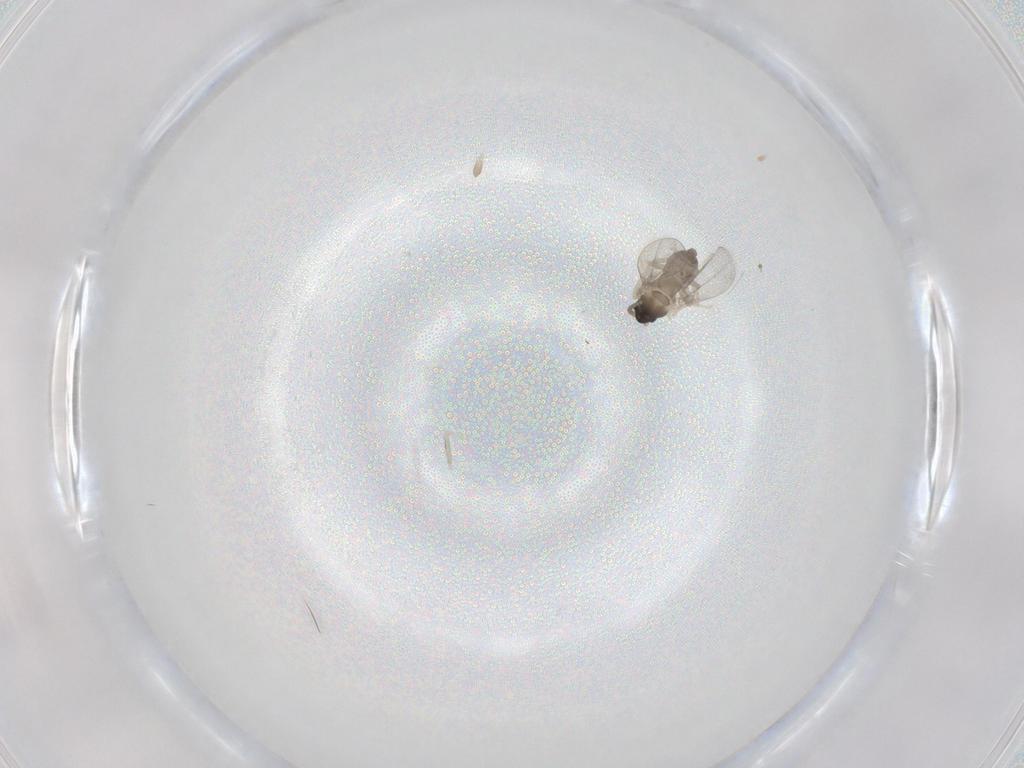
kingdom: Animalia
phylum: Arthropoda
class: Insecta
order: Diptera
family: Cecidomyiidae
